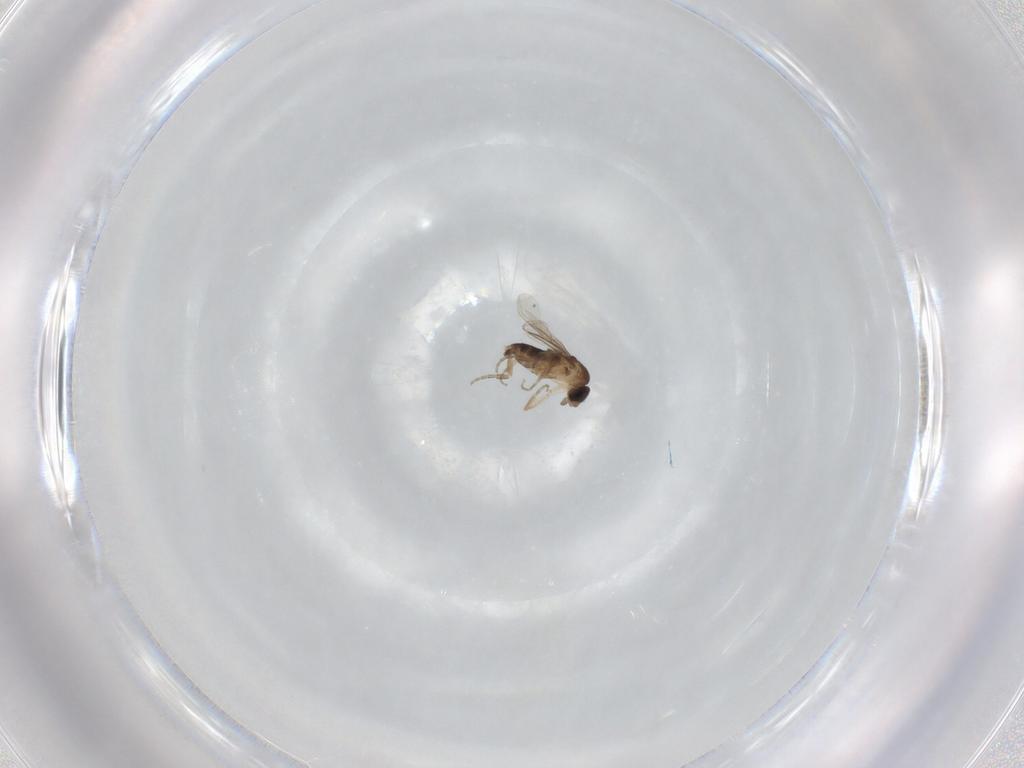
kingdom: Animalia
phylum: Arthropoda
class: Insecta
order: Diptera
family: Phoridae
